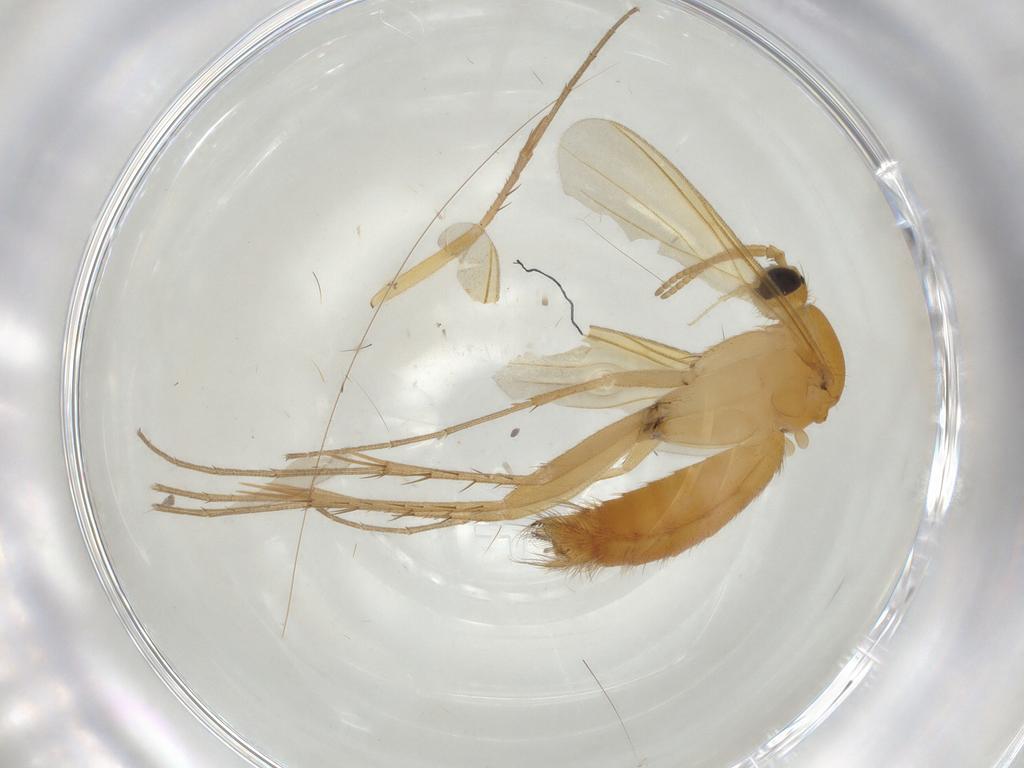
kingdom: Animalia
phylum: Arthropoda
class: Insecta
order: Diptera
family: Mycetophilidae
